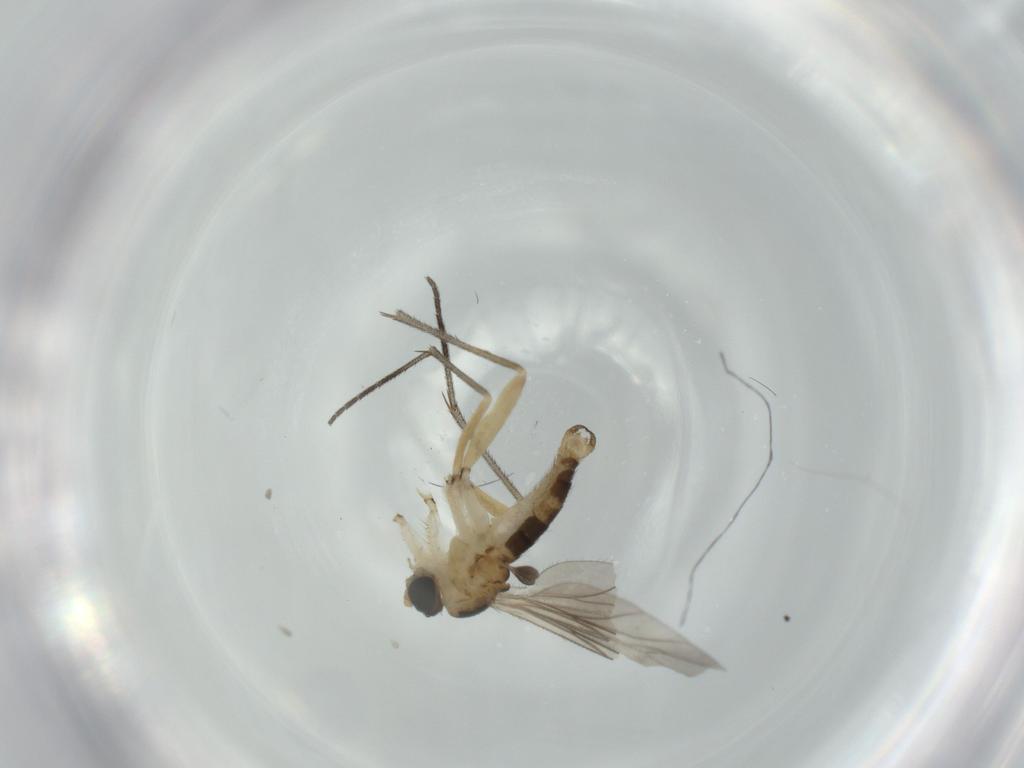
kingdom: Animalia
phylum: Arthropoda
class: Insecta
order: Diptera
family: Sciaridae
